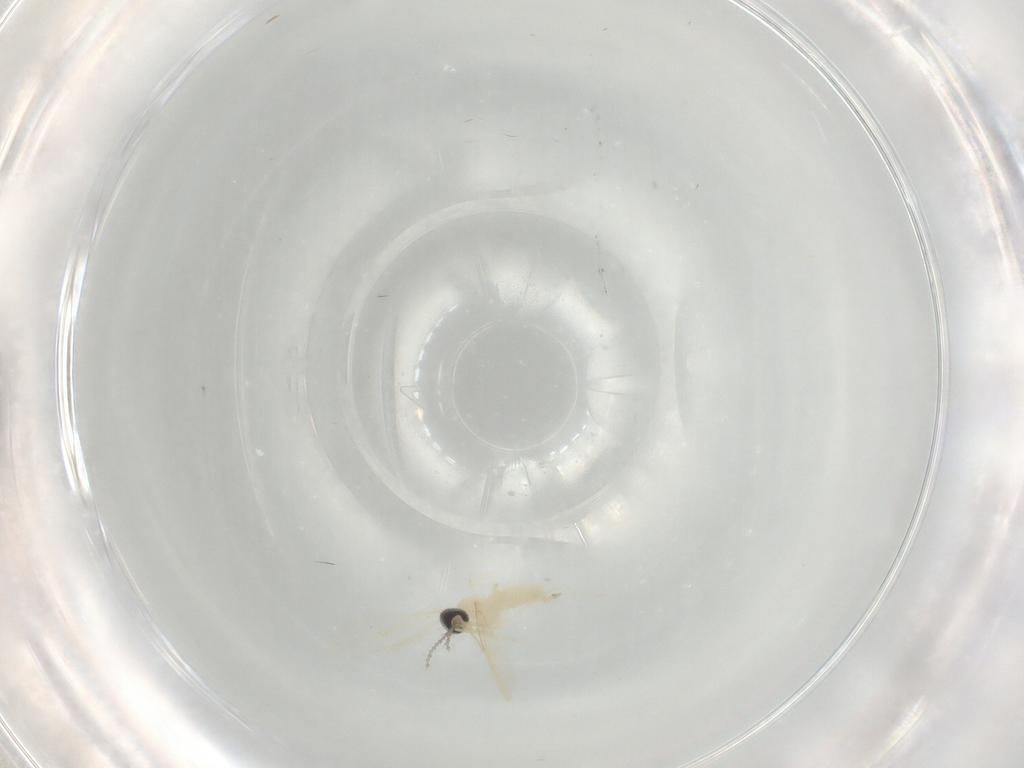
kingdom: Animalia
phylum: Arthropoda
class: Insecta
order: Diptera
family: Cecidomyiidae
